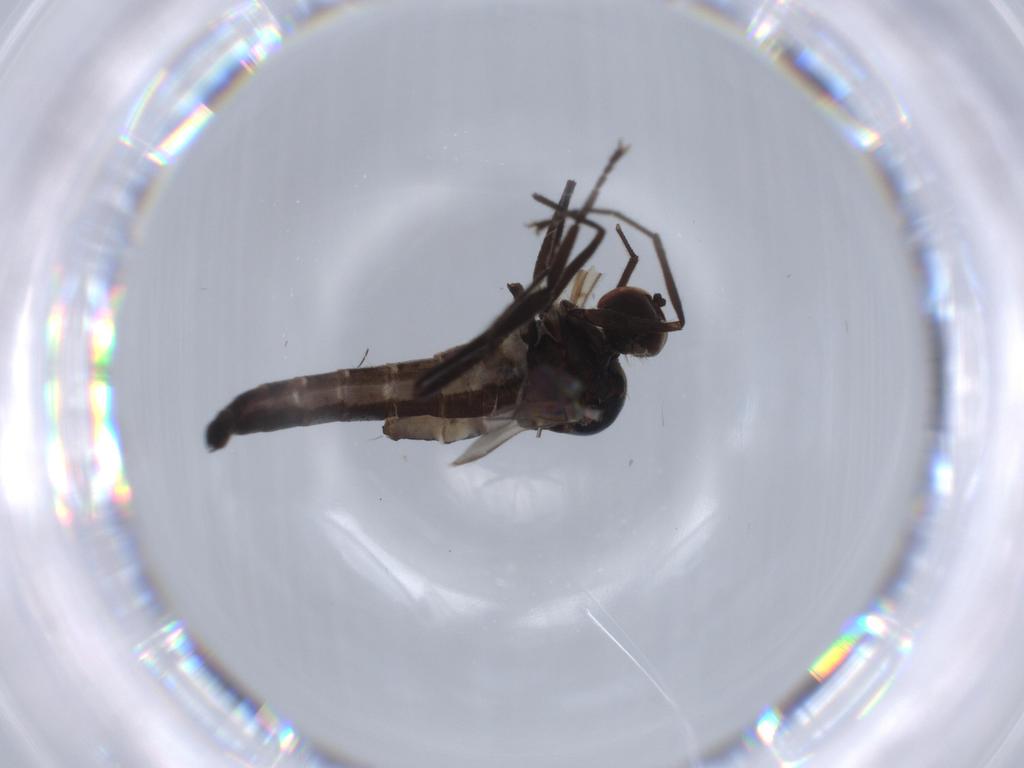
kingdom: Animalia
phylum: Arthropoda
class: Insecta
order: Diptera
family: Hybotidae
